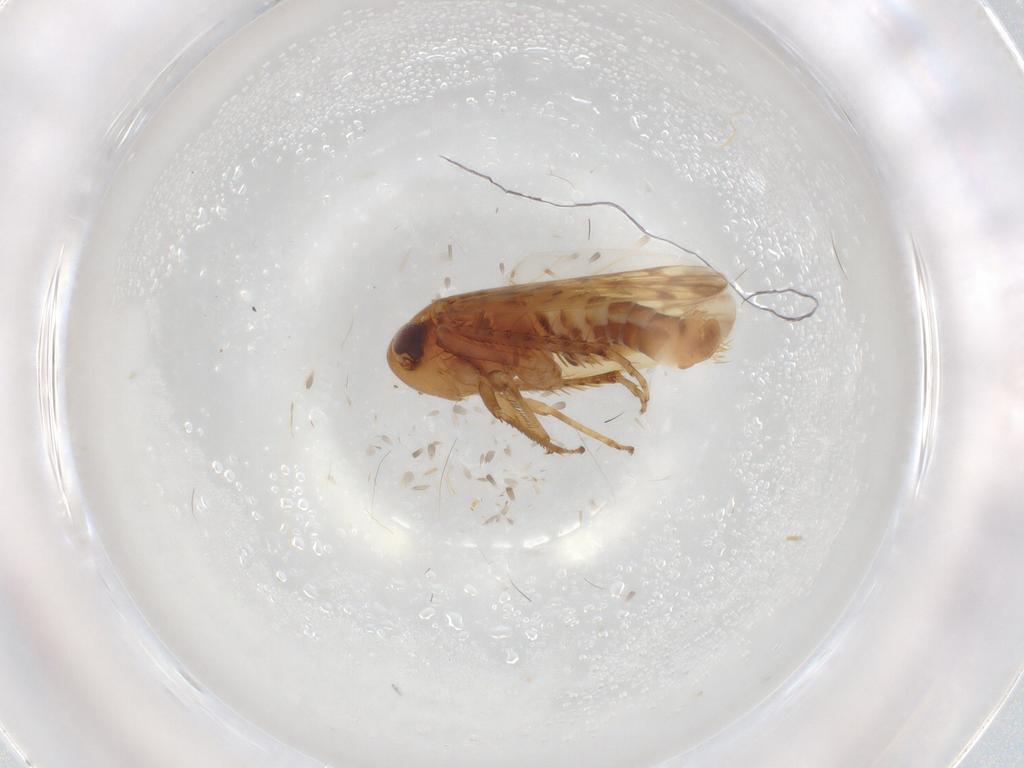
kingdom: Animalia
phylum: Arthropoda
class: Insecta
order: Hemiptera
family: Cicadellidae
